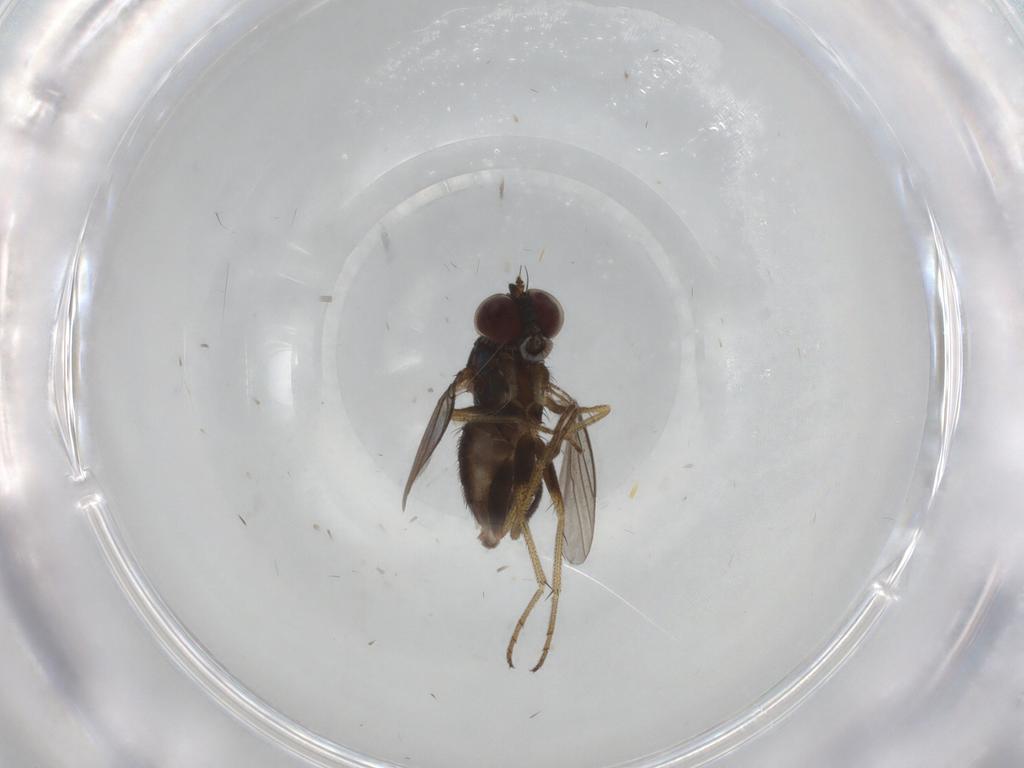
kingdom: Animalia
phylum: Arthropoda
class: Insecta
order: Diptera
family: Dolichopodidae
